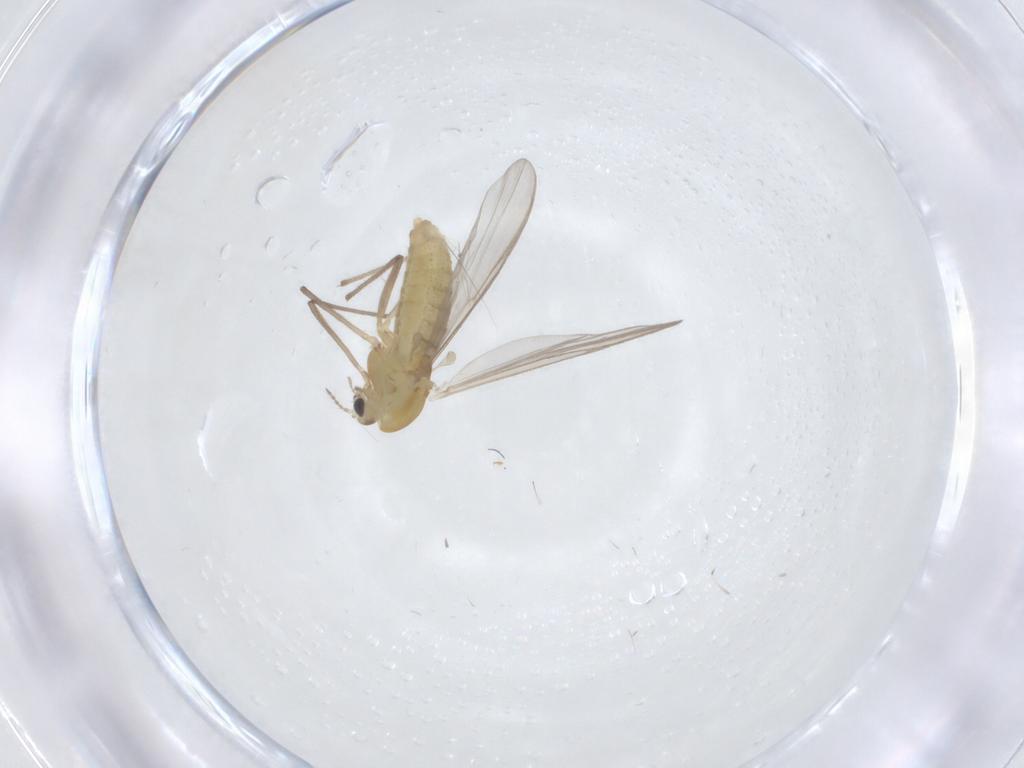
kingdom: Animalia
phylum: Arthropoda
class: Insecta
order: Diptera
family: Chironomidae
